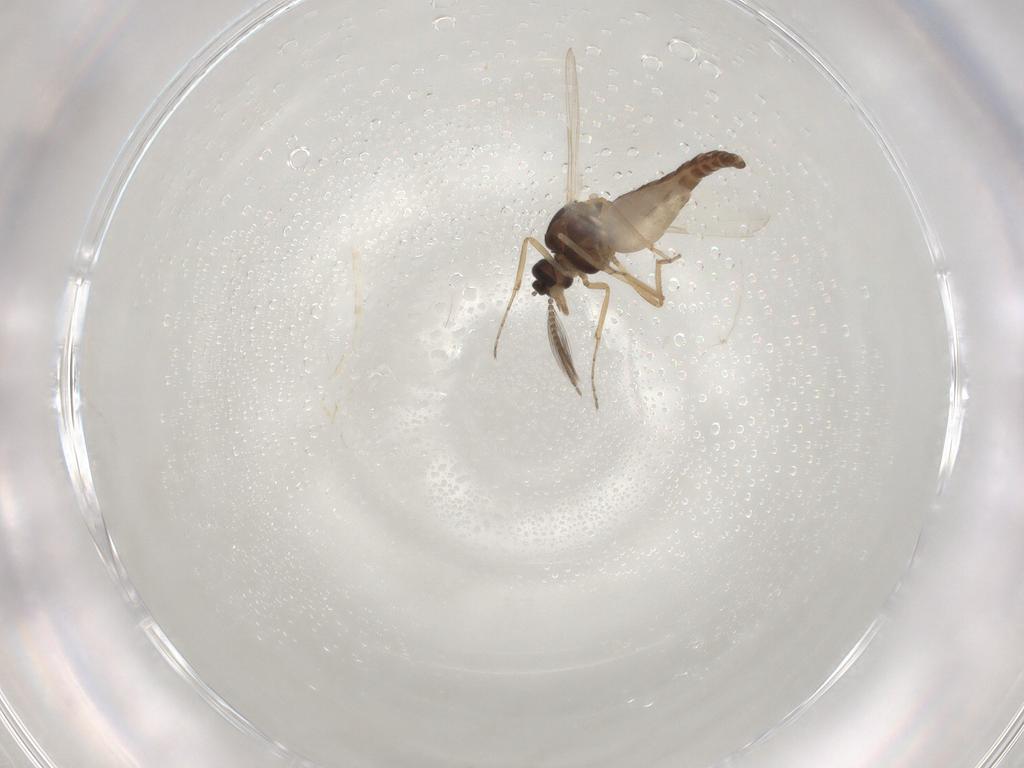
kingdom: Animalia
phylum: Arthropoda
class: Insecta
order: Diptera
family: Ceratopogonidae
